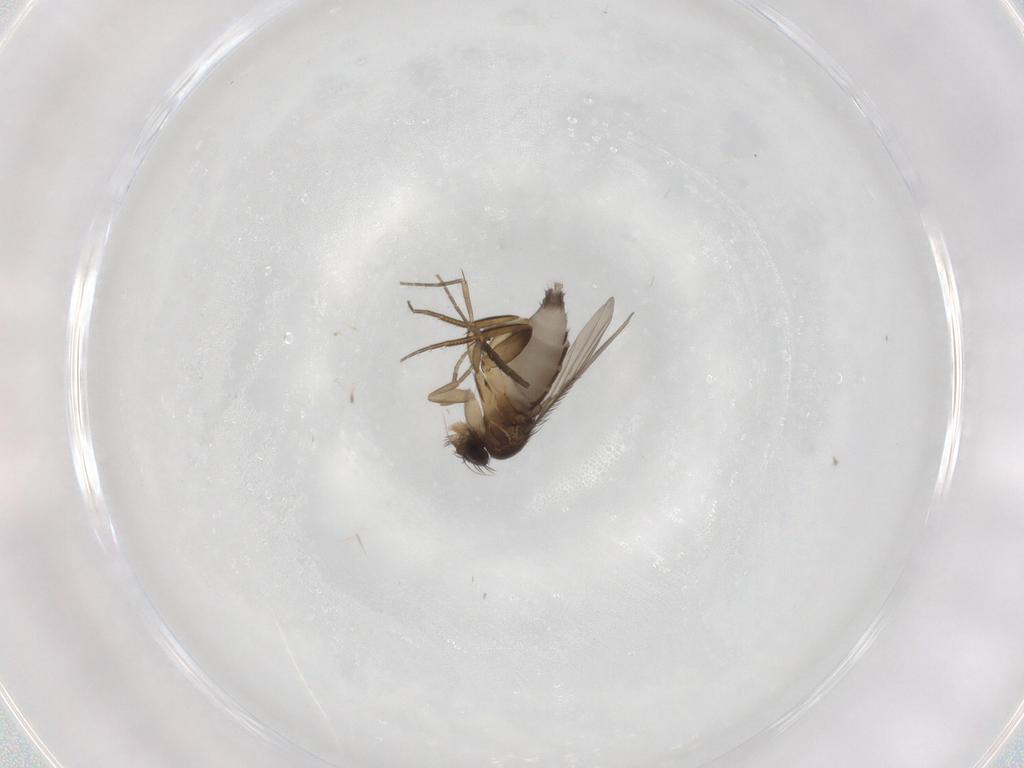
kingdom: Animalia
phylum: Arthropoda
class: Insecta
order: Diptera
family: Phoridae
